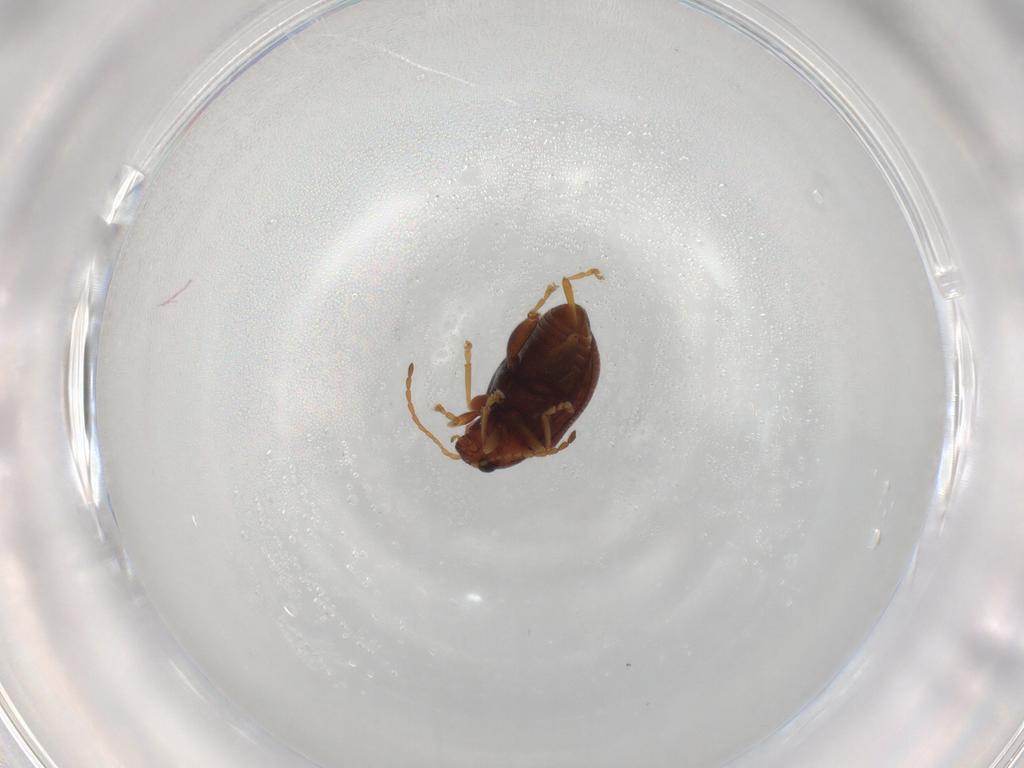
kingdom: Animalia
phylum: Arthropoda
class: Insecta
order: Coleoptera
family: Chrysomelidae
